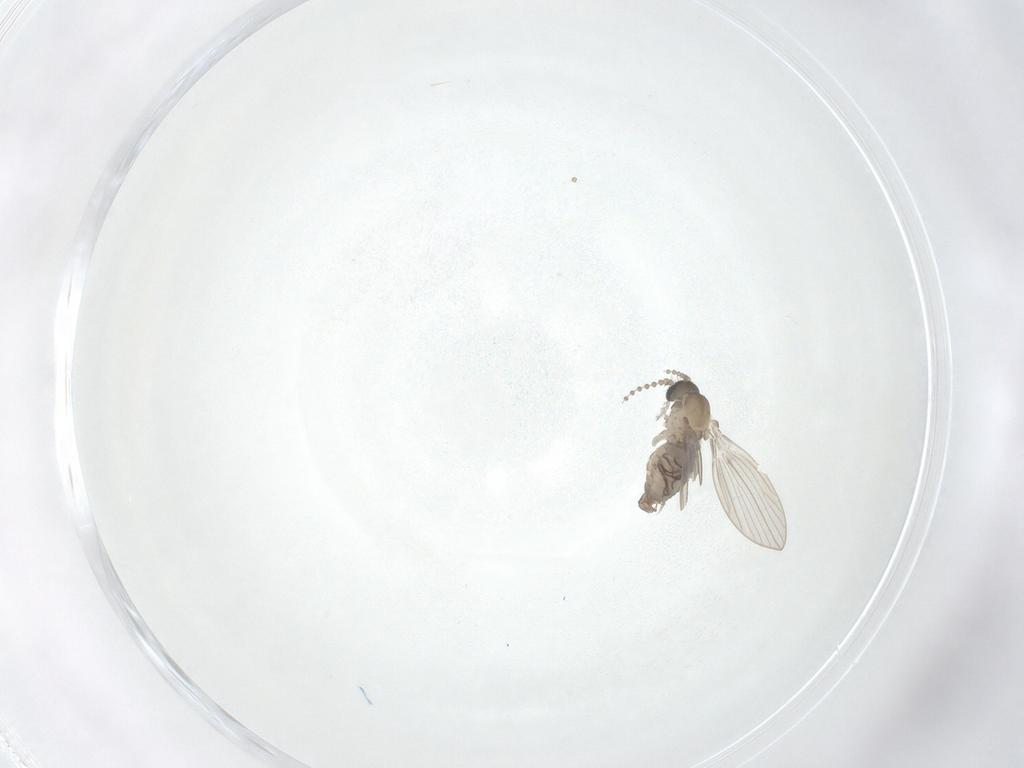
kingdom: Animalia
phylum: Arthropoda
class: Insecta
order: Diptera
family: Psychodidae
